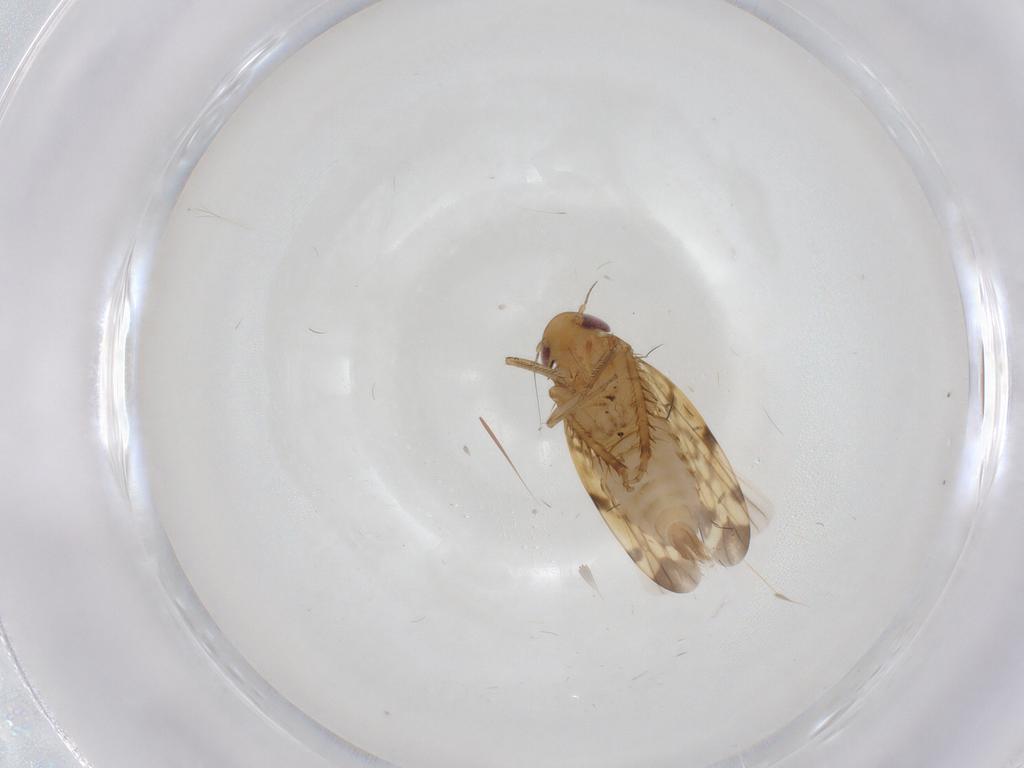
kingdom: Animalia
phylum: Arthropoda
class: Insecta
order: Hemiptera
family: Cicadellidae
